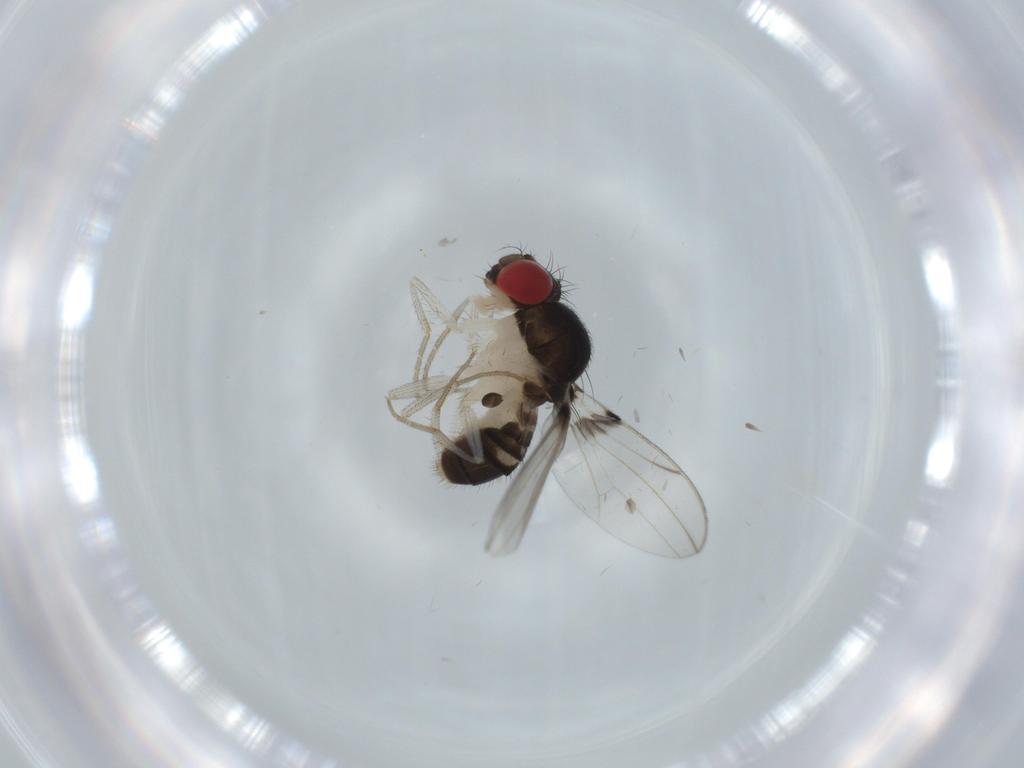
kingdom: Animalia
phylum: Arthropoda
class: Insecta
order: Diptera
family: Drosophilidae
